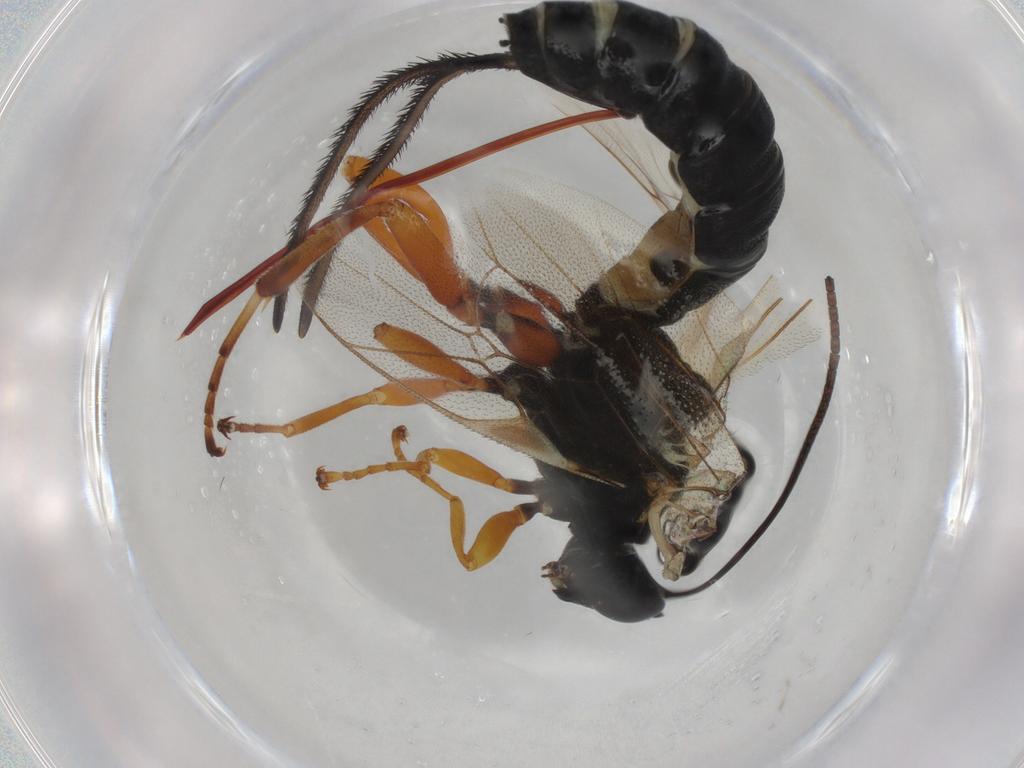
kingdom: Animalia
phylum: Arthropoda
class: Insecta
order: Hymenoptera
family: Ichneumonidae
